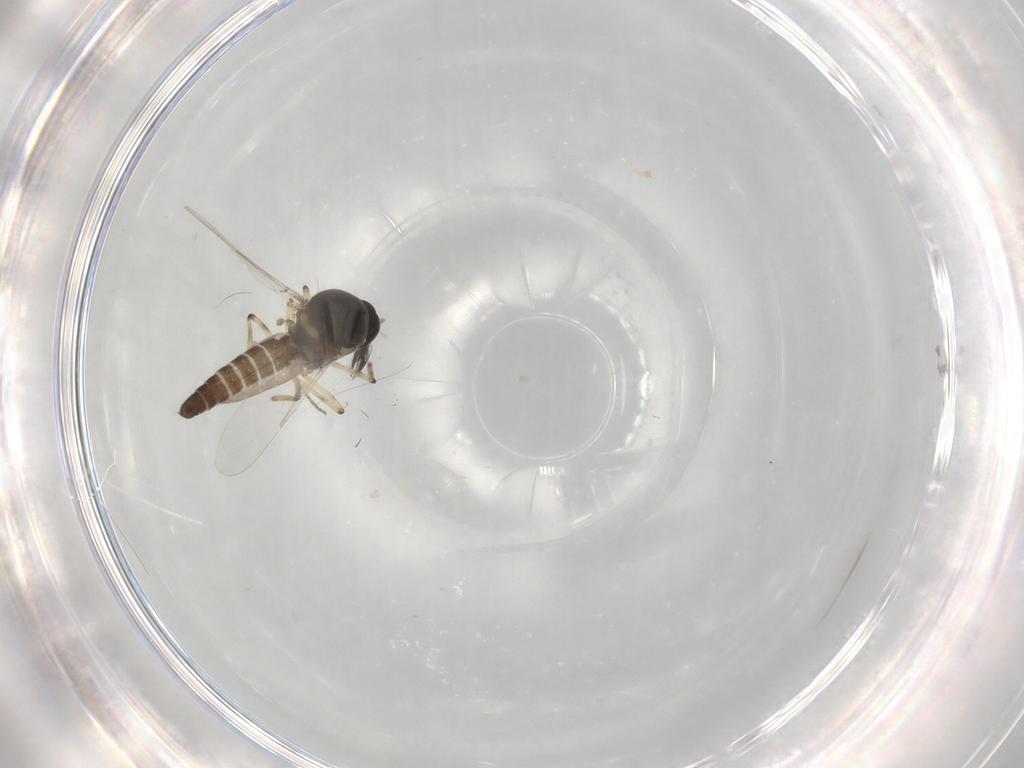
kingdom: Animalia
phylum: Arthropoda
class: Insecta
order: Diptera
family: Ceratopogonidae
